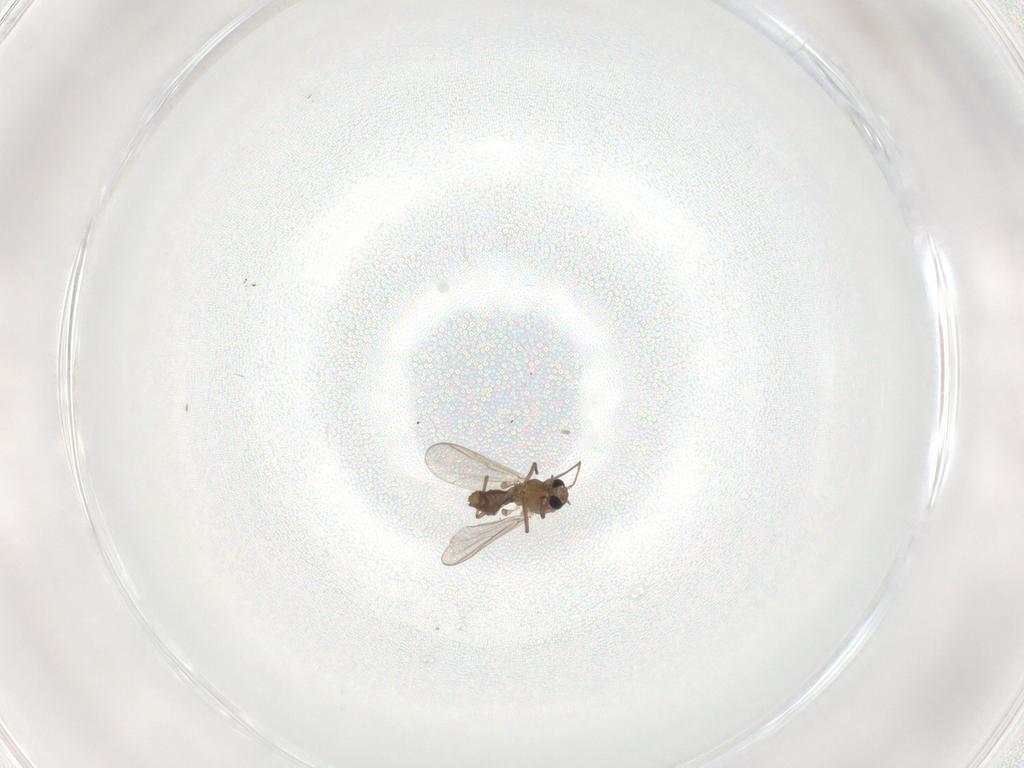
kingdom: Animalia
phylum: Arthropoda
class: Insecta
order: Diptera
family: Chironomidae
